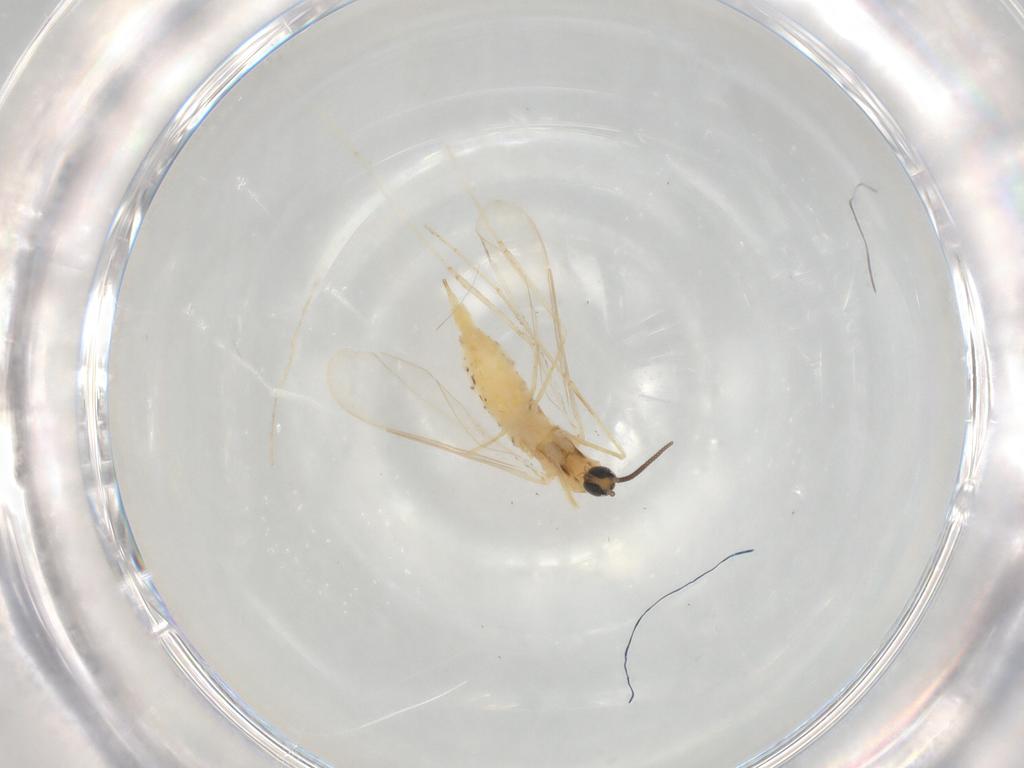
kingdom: Animalia
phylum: Arthropoda
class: Insecta
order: Diptera
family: Cecidomyiidae
